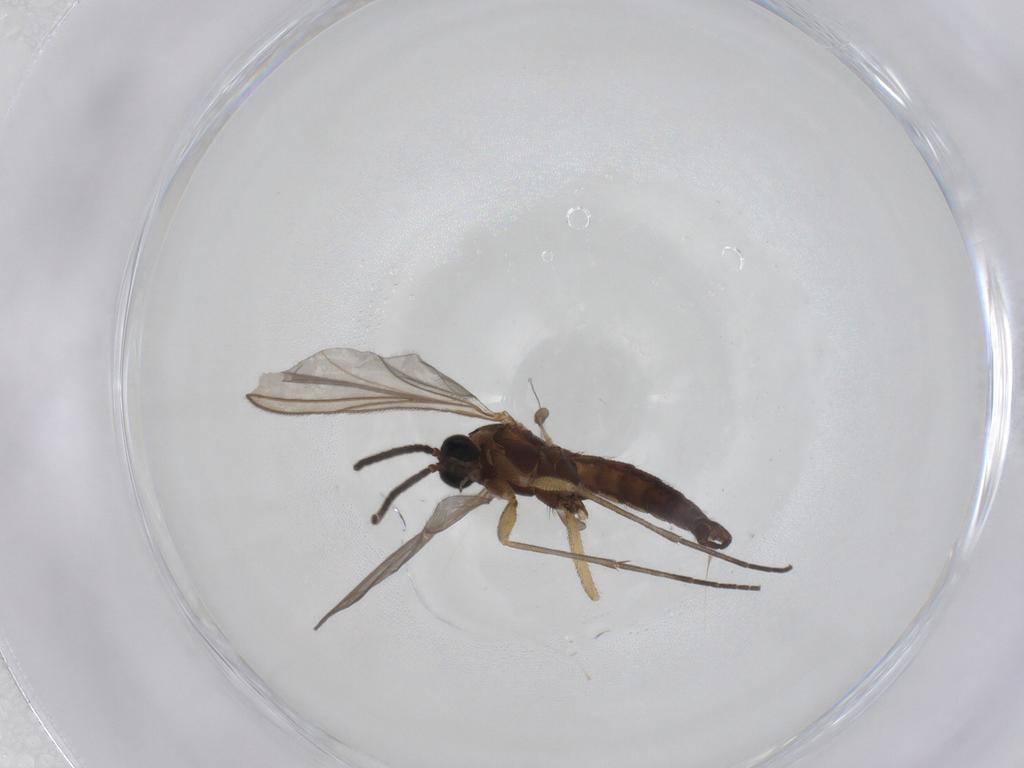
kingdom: Animalia
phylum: Arthropoda
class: Insecta
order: Diptera
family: Sciaridae
